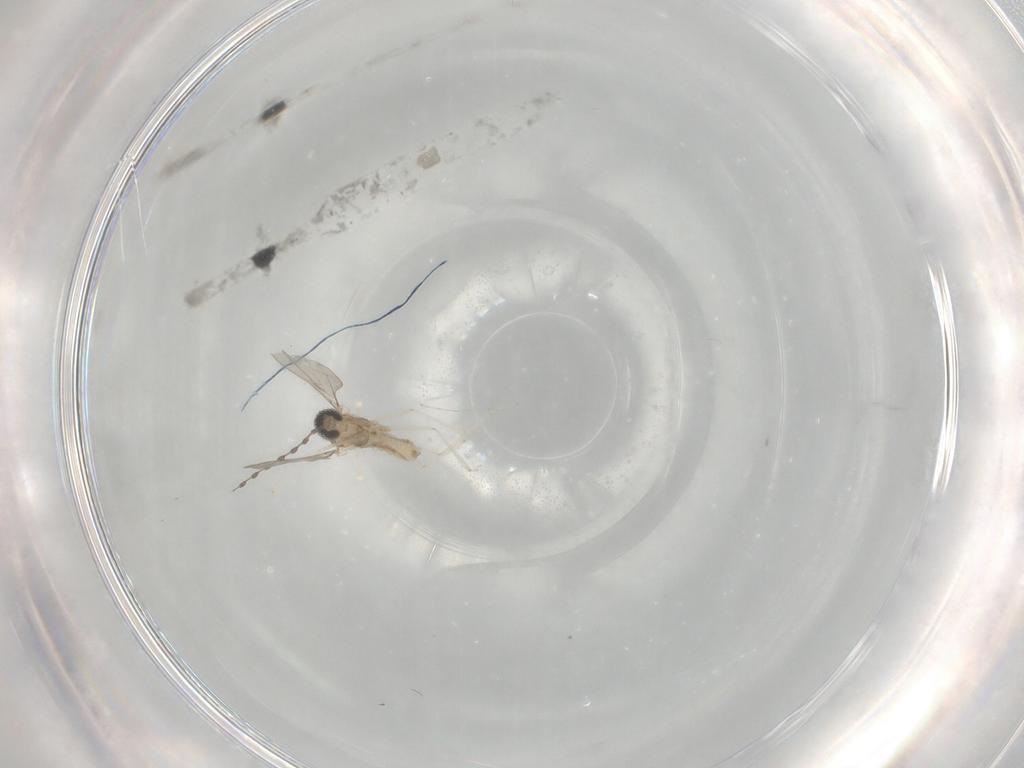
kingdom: Animalia
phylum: Arthropoda
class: Insecta
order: Diptera
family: Cecidomyiidae
